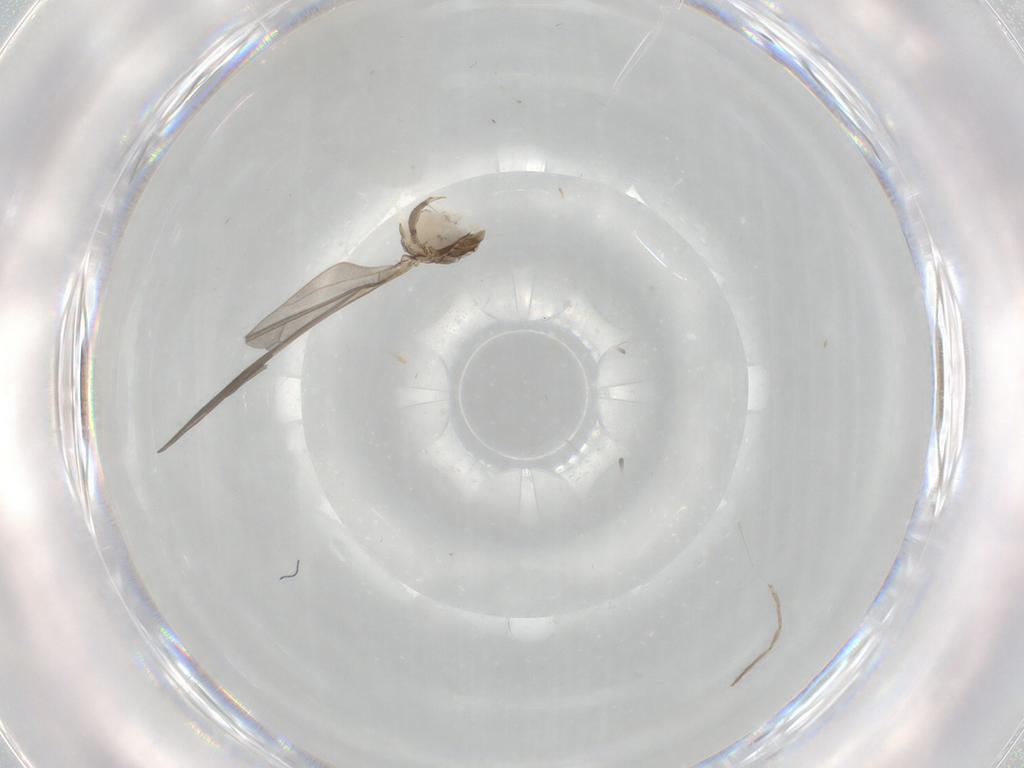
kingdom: Animalia
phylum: Arthropoda
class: Insecta
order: Diptera
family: Limoniidae
